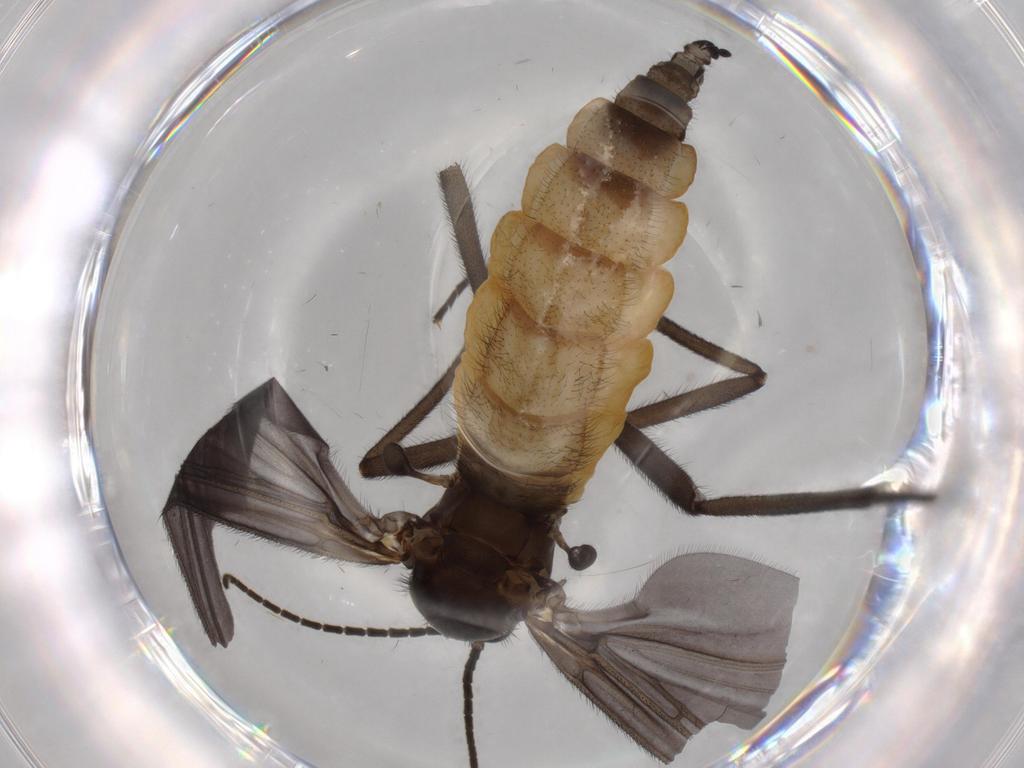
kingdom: Animalia
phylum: Arthropoda
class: Insecta
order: Diptera
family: Cecidomyiidae
